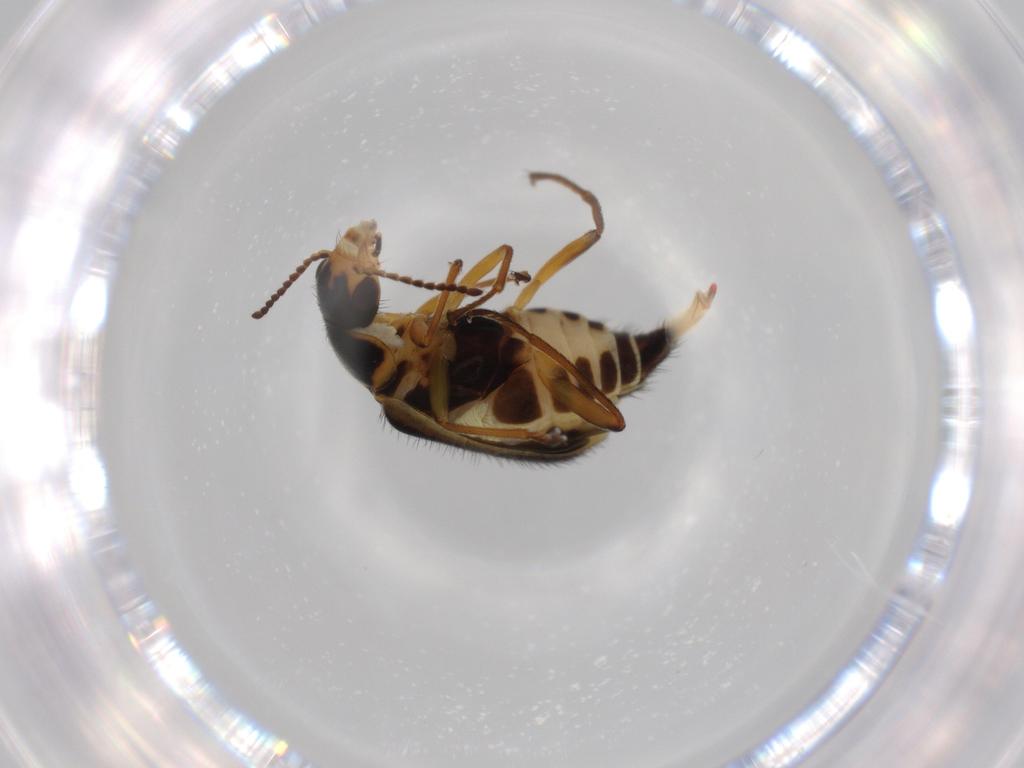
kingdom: Animalia
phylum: Arthropoda
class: Insecta
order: Coleoptera
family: Melyridae
